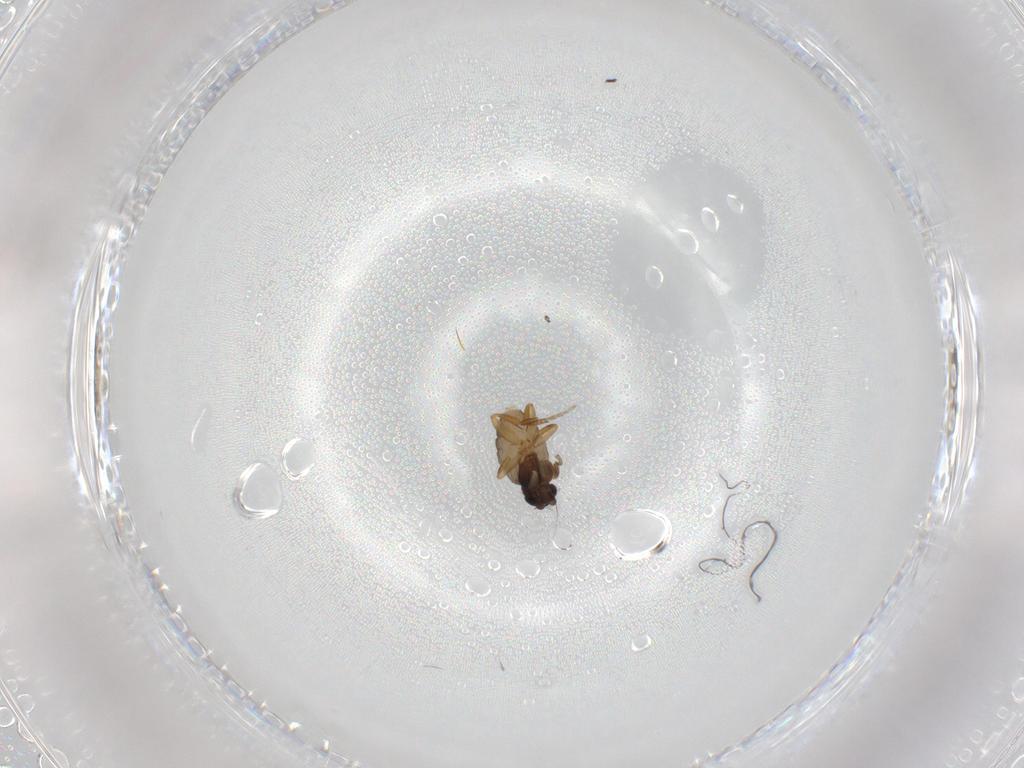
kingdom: Animalia
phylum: Arthropoda
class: Insecta
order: Diptera
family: Phoridae
